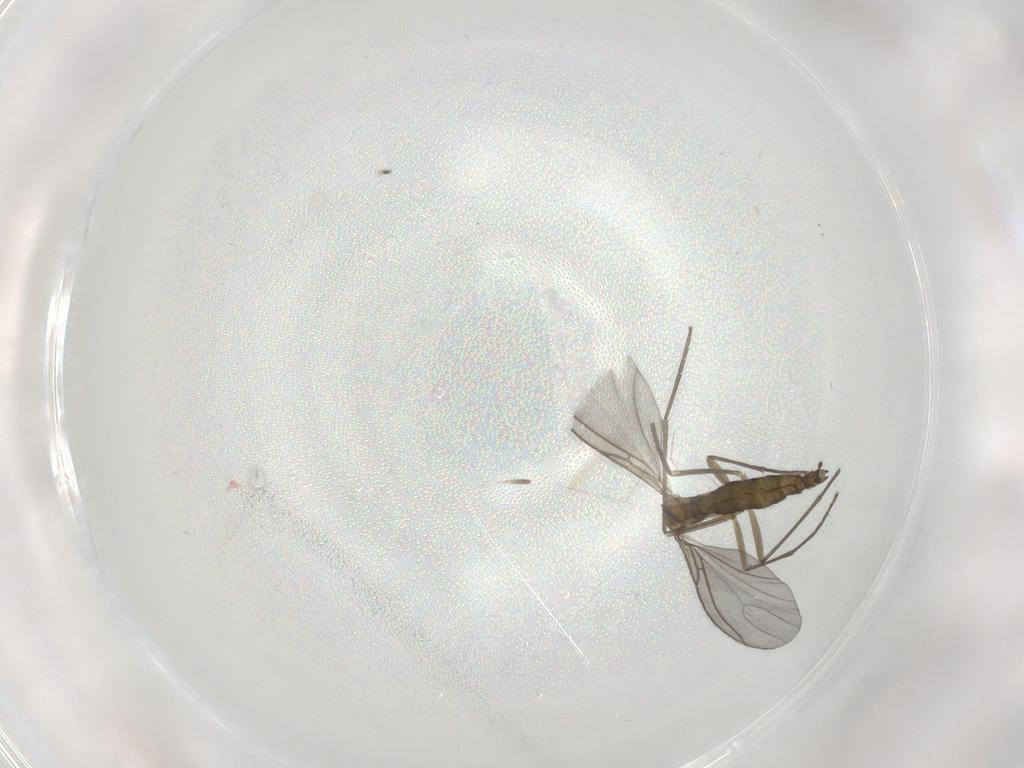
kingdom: Animalia
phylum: Arthropoda
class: Insecta
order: Diptera
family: Sciaridae
